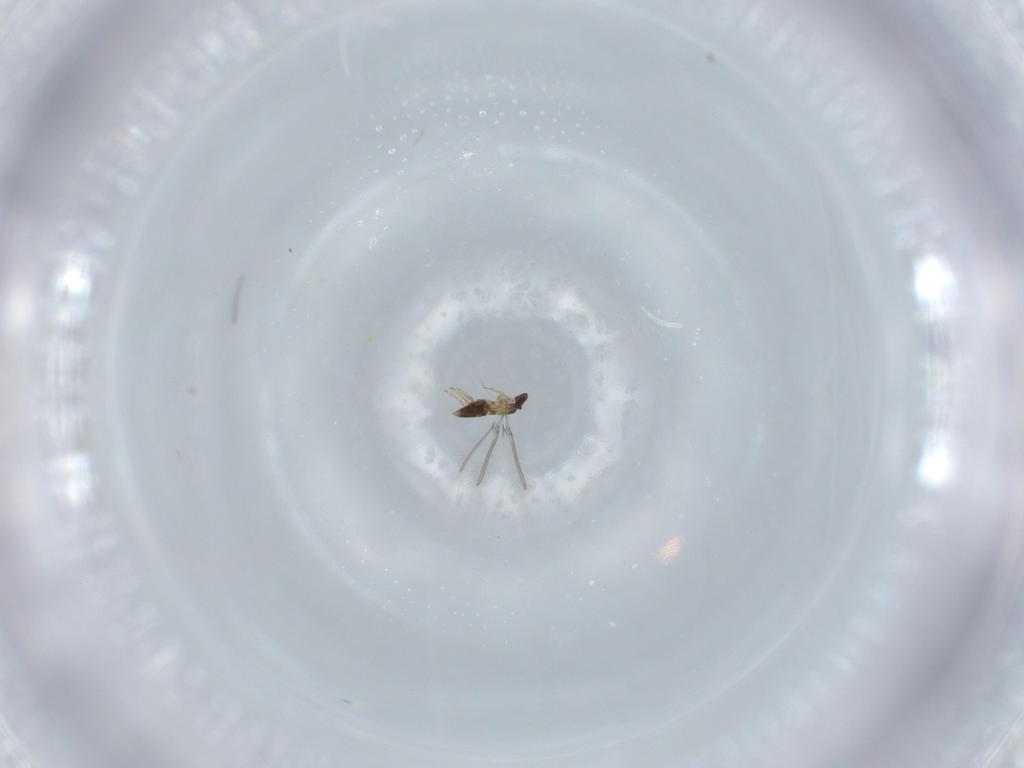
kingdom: Animalia
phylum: Arthropoda
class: Insecta
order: Hymenoptera
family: Mymaridae
